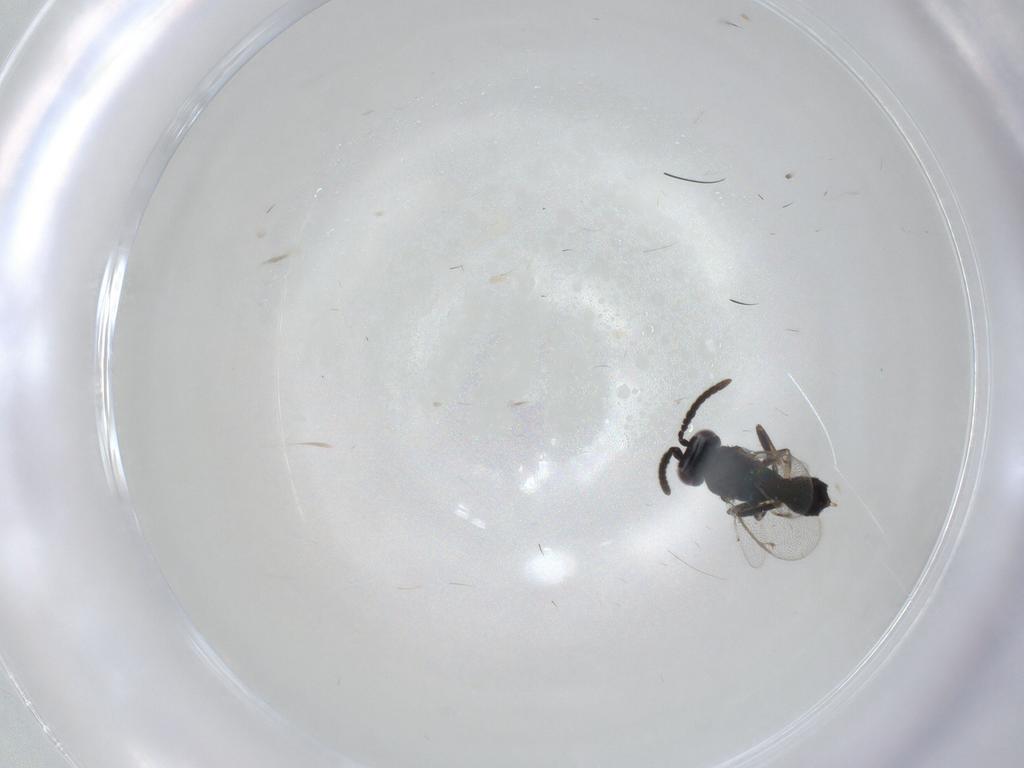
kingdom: Animalia
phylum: Arthropoda
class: Insecta
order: Hymenoptera
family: Eupelmidae
